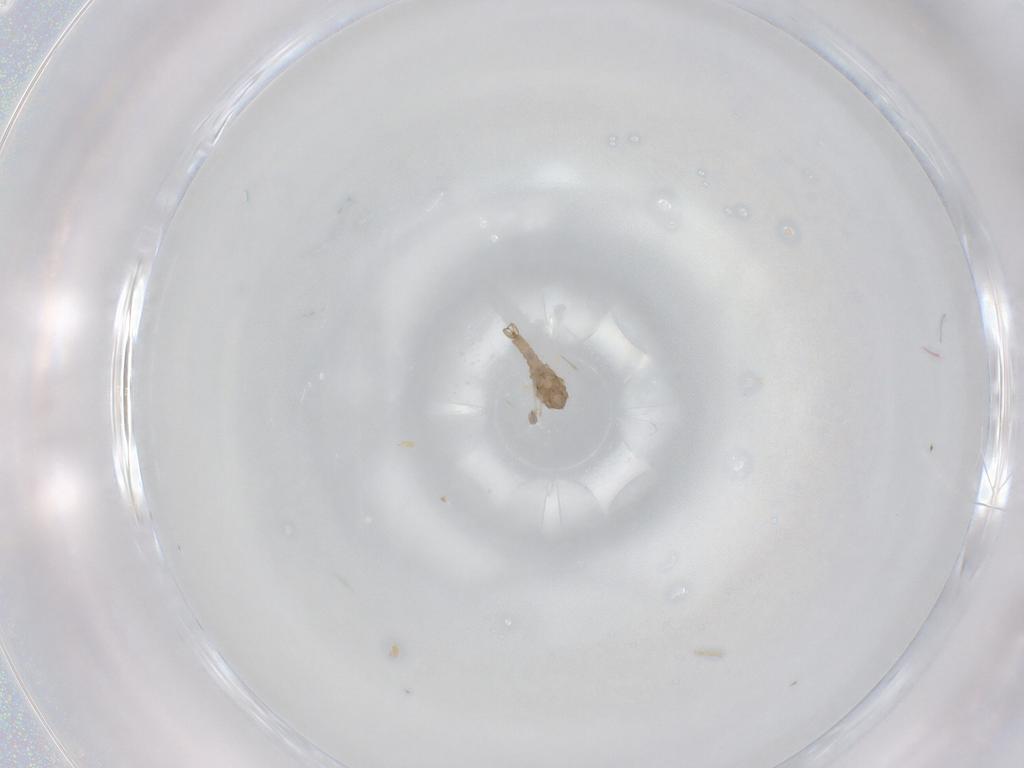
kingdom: Animalia
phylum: Arthropoda
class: Insecta
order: Diptera
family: Cecidomyiidae
